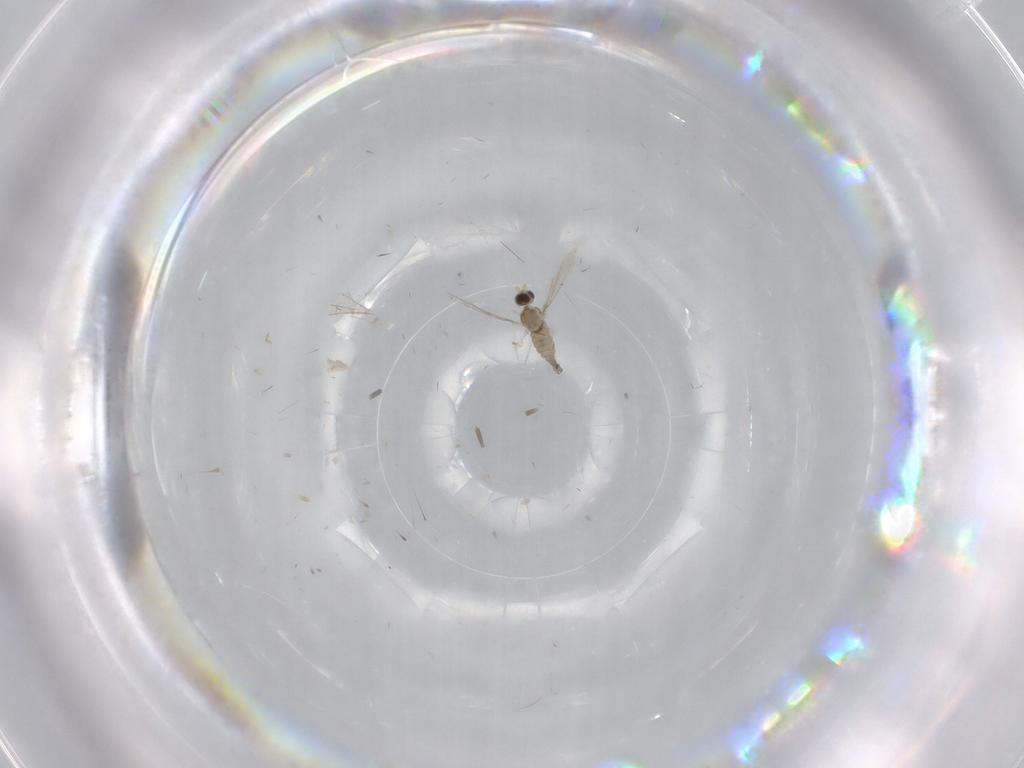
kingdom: Animalia
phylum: Arthropoda
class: Insecta
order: Diptera
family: Cecidomyiidae
